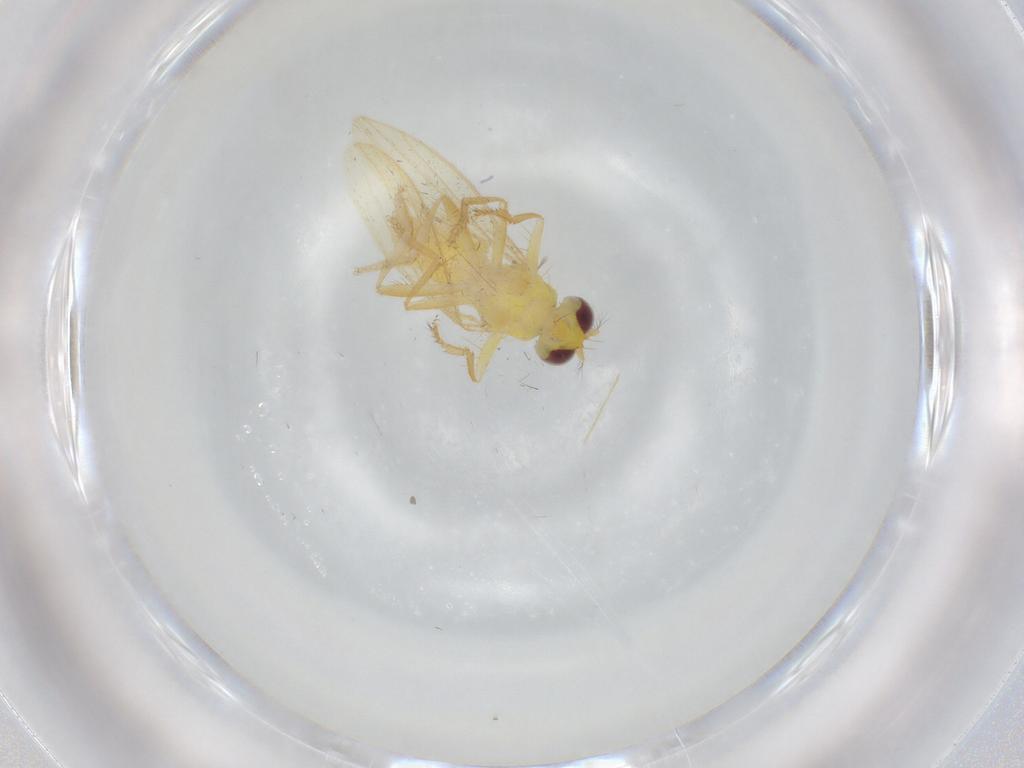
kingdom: Animalia
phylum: Arthropoda
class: Insecta
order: Diptera
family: Periscelididae
